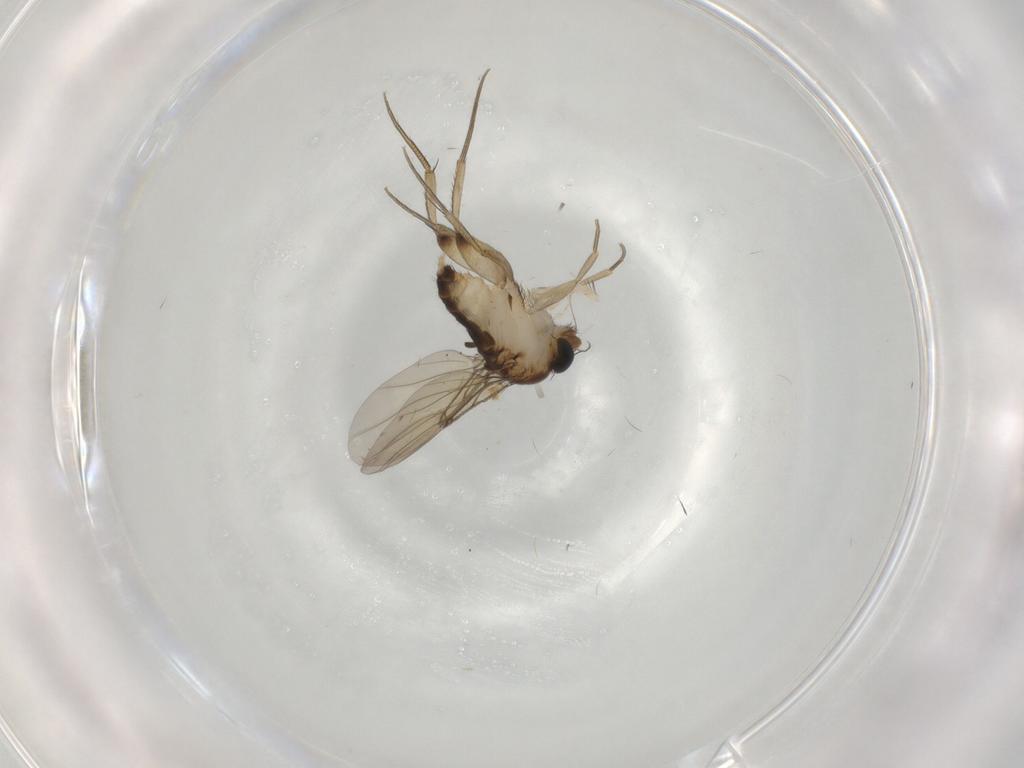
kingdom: Animalia
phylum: Arthropoda
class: Insecta
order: Diptera
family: Phoridae
